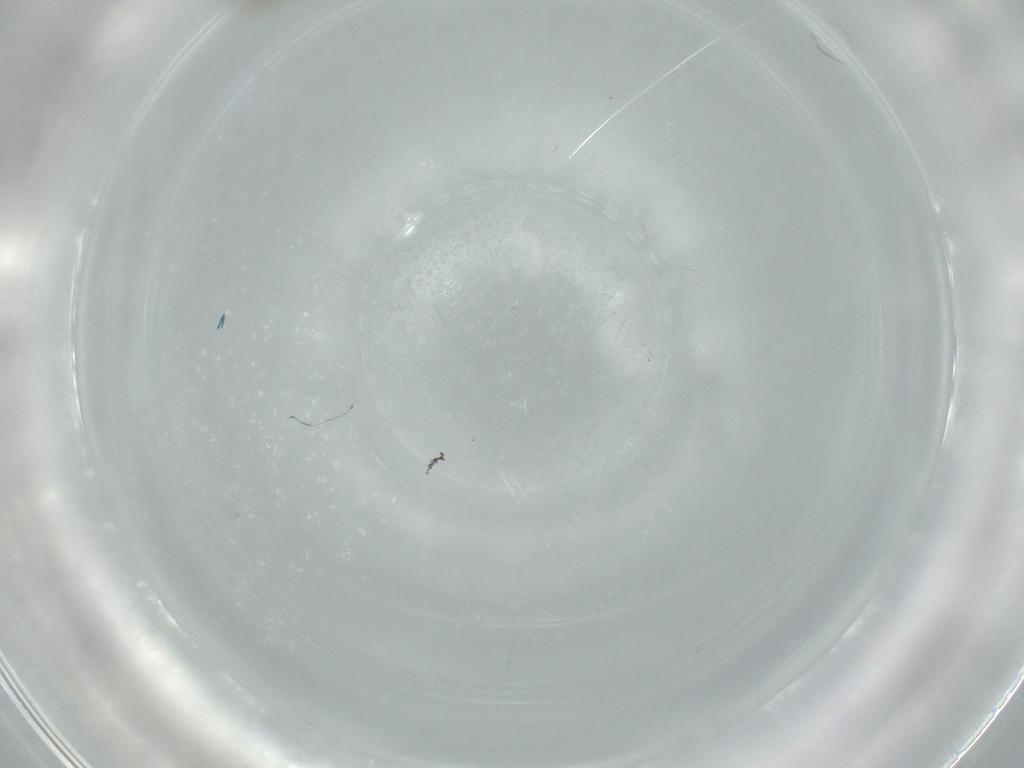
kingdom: Animalia
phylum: Arthropoda
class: Insecta
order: Diptera
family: Cecidomyiidae
